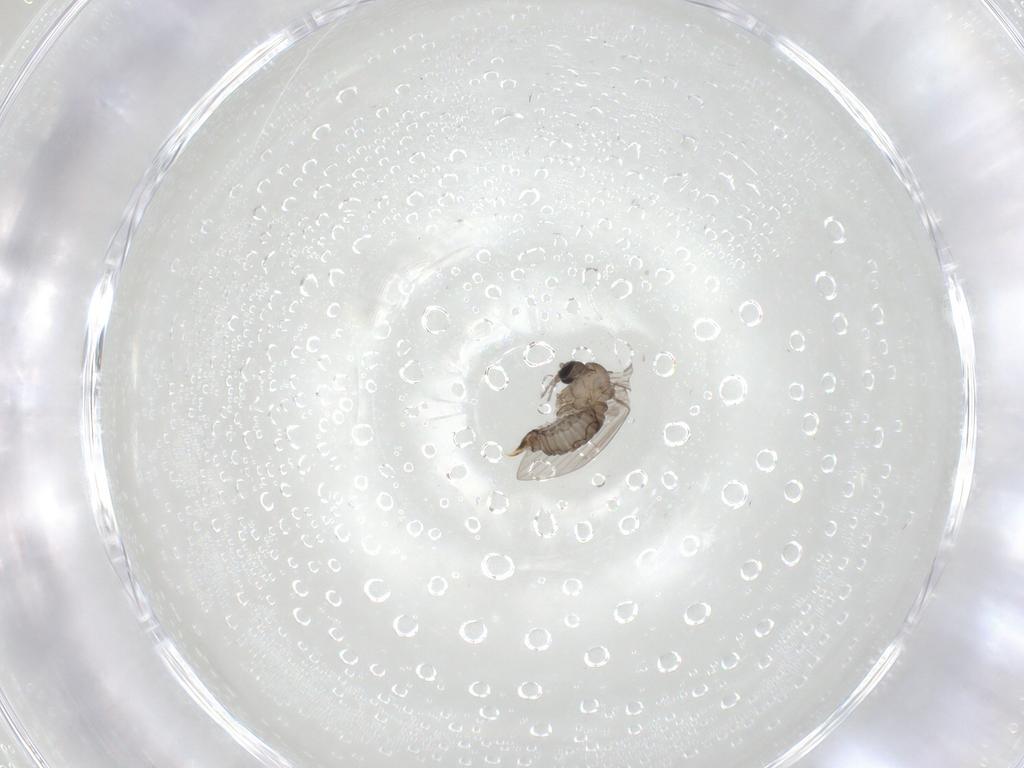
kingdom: Animalia
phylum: Arthropoda
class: Insecta
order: Diptera
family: Psychodidae
